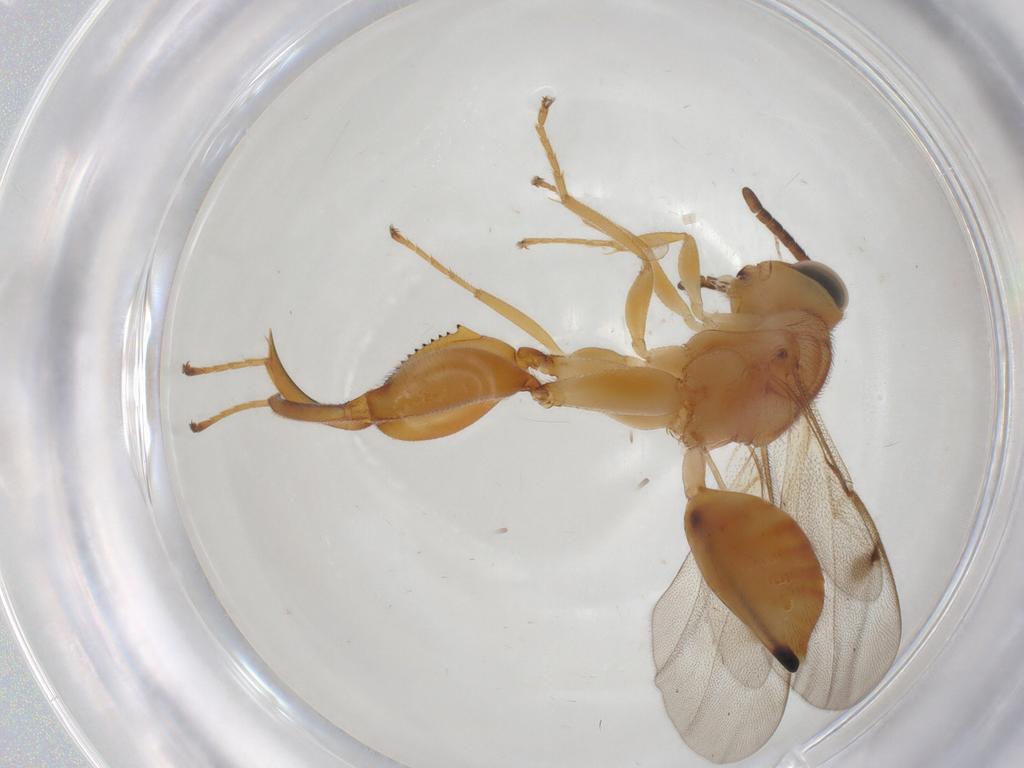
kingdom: Animalia
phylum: Arthropoda
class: Insecta
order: Hymenoptera
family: Chalcididae
